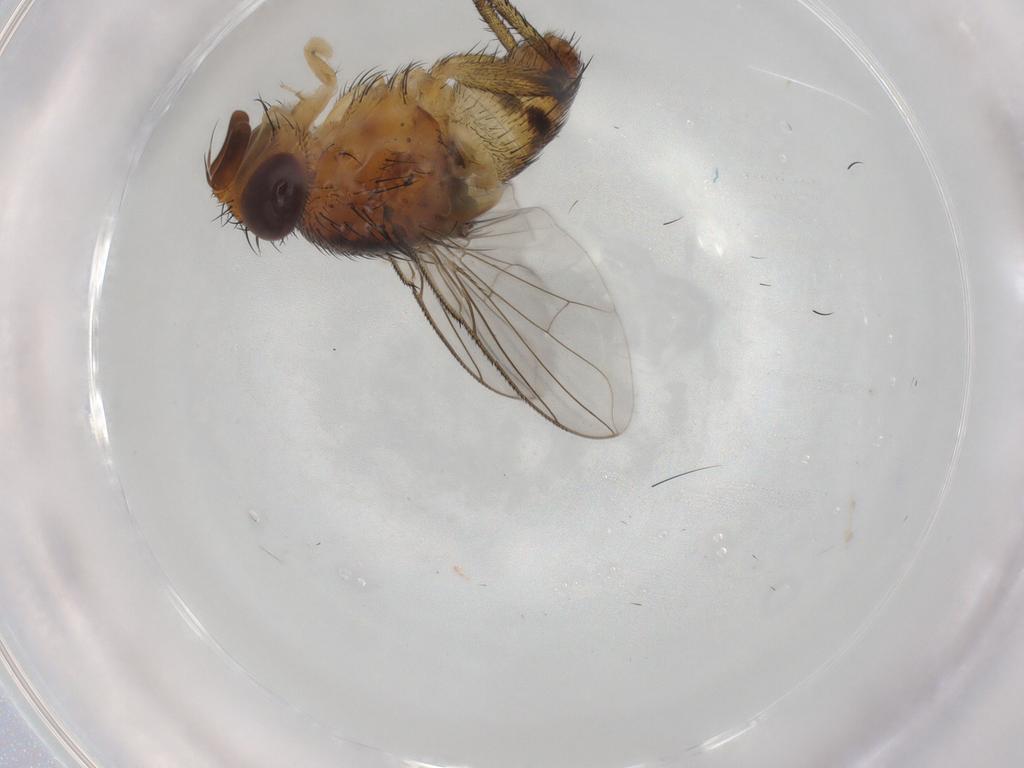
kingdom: Animalia
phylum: Arthropoda
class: Insecta
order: Diptera
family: Tachinidae
